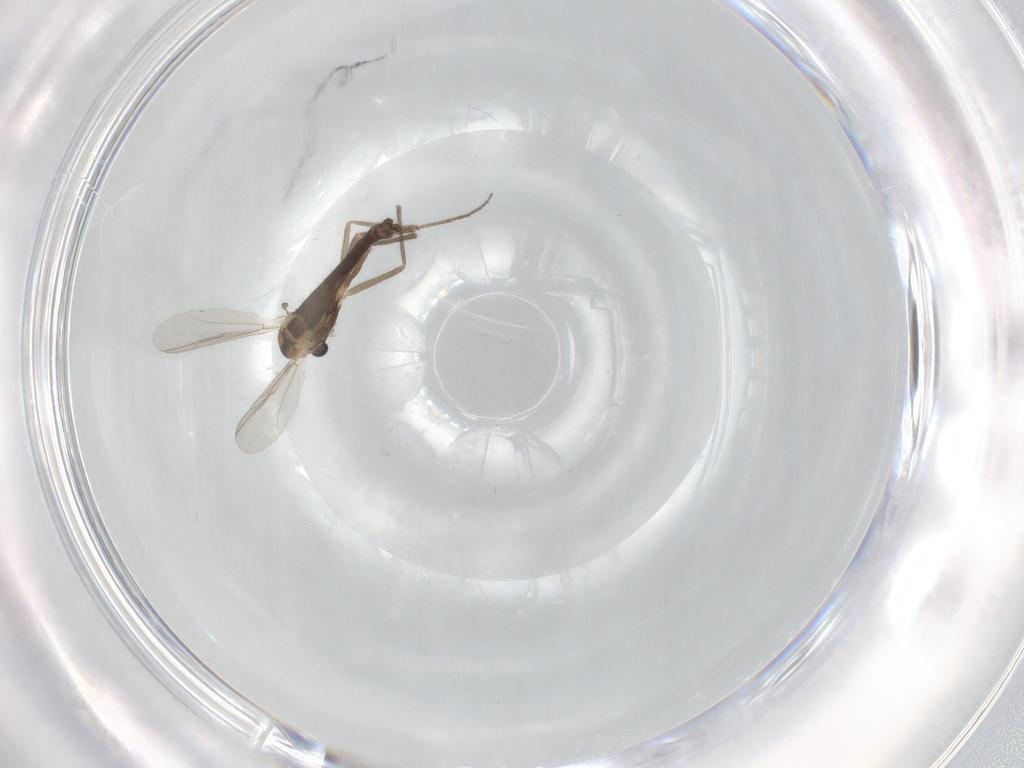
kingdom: Animalia
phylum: Arthropoda
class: Insecta
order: Diptera
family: Chironomidae
